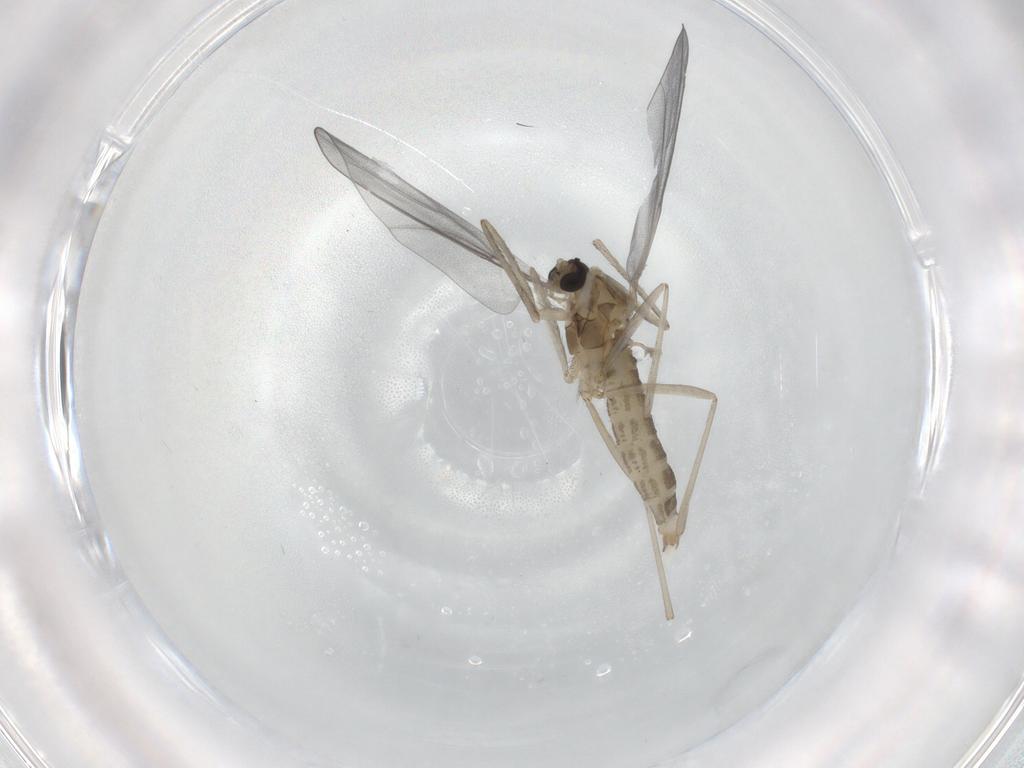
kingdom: Animalia
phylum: Arthropoda
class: Insecta
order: Diptera
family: Cecidomyiidae
